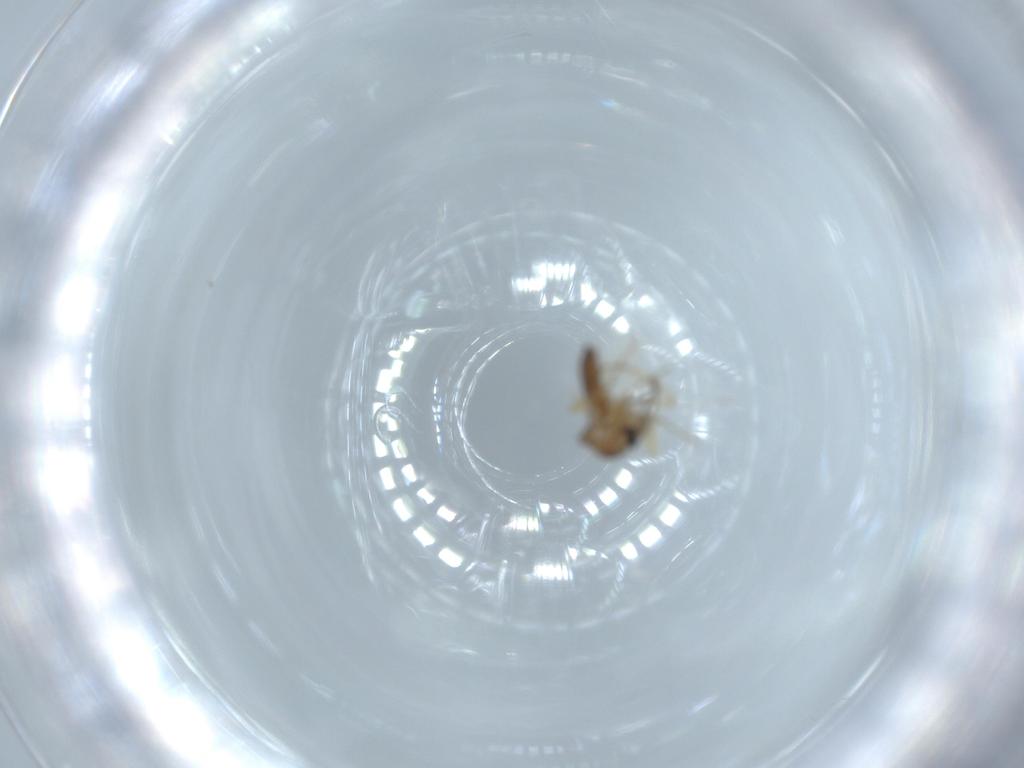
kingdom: Animalia
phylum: Arthropoda
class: Insecta
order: Diptera
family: Ceratopogonidae
